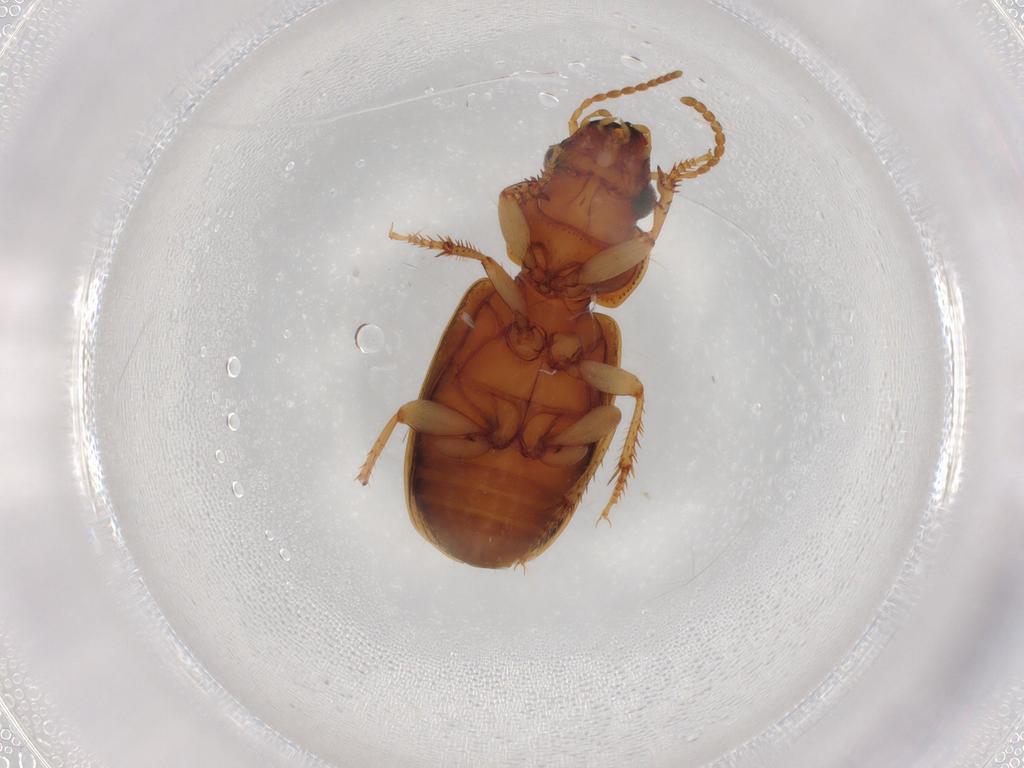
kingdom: Animalia
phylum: Arthropoda
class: Insecta
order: Coleoptera
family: Carabidae
